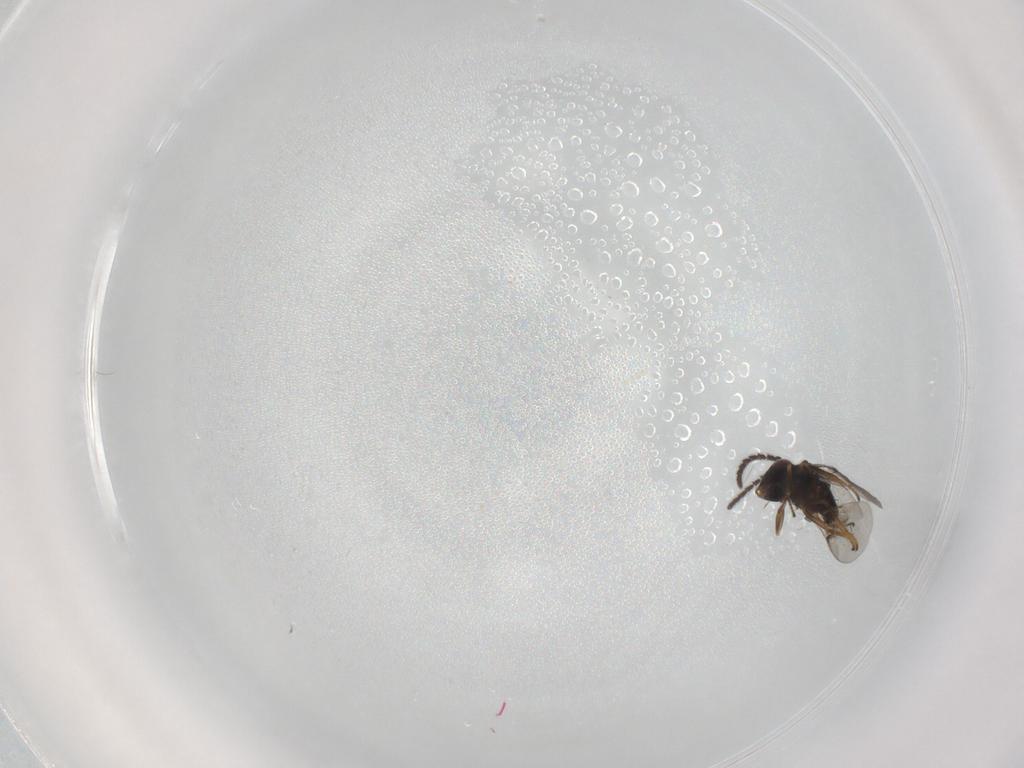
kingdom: Animalia
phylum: Arthropoda
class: Insecta
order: Hymenoptera
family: Encyrtidae
